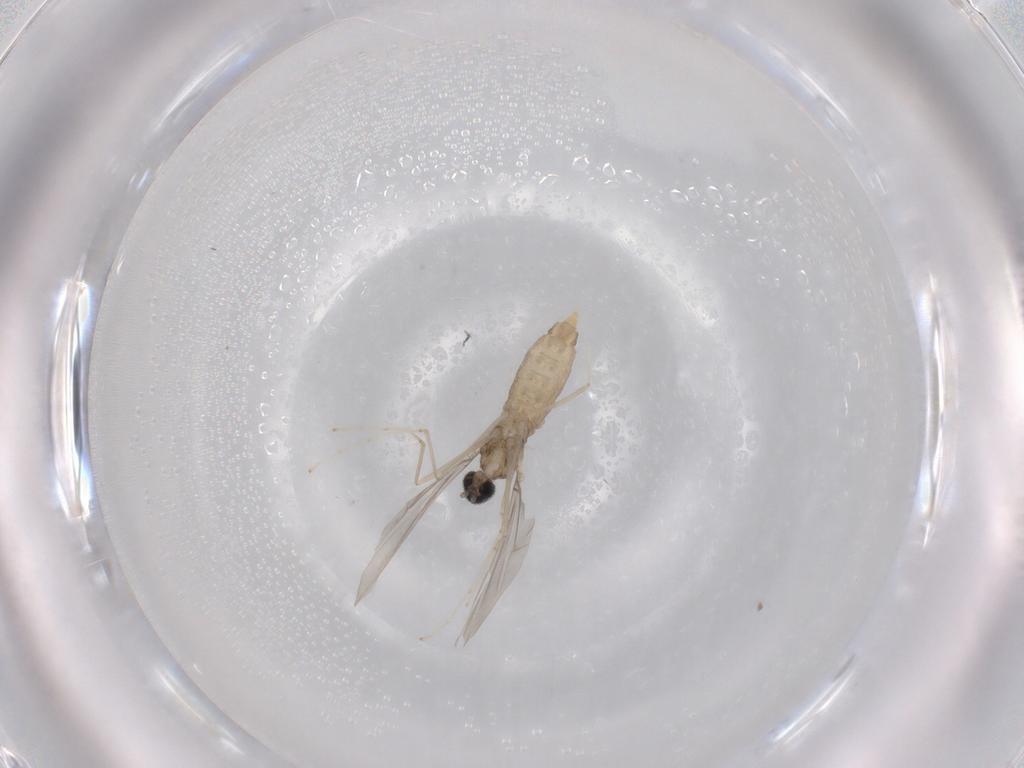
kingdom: Animalia
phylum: Arthropoda
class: Insecta
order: Diptera
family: Cecidomyiidae
